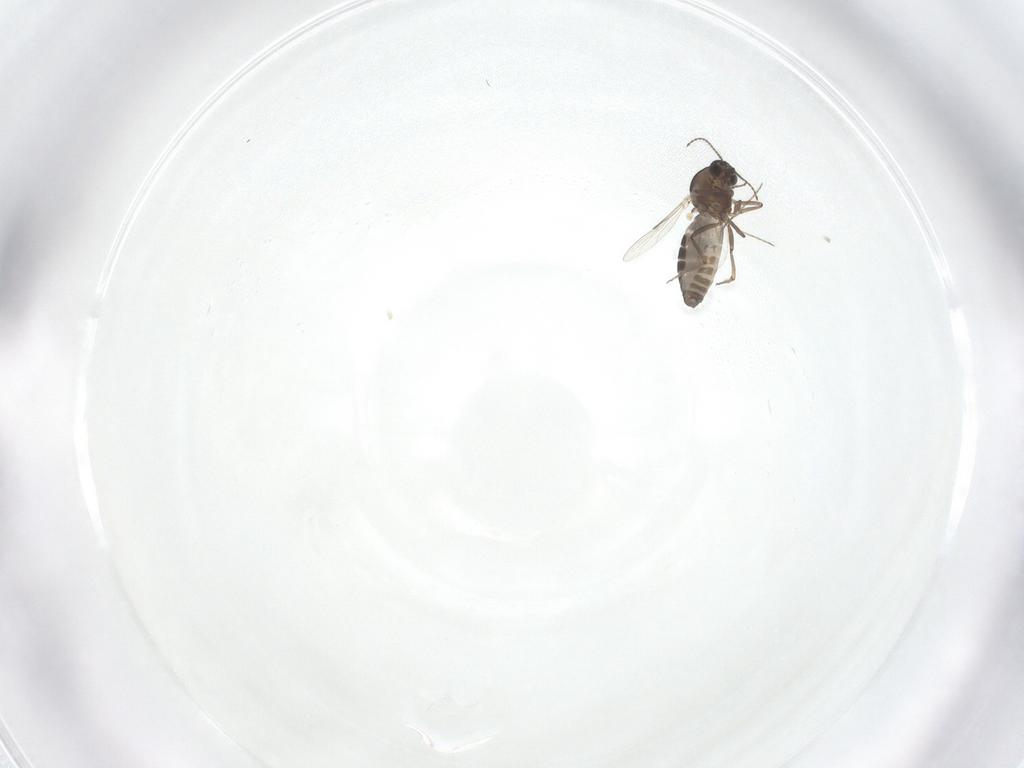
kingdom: Animalia
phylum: Arthropoda
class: Insecta
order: Diptera
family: Ceratopogonidae
